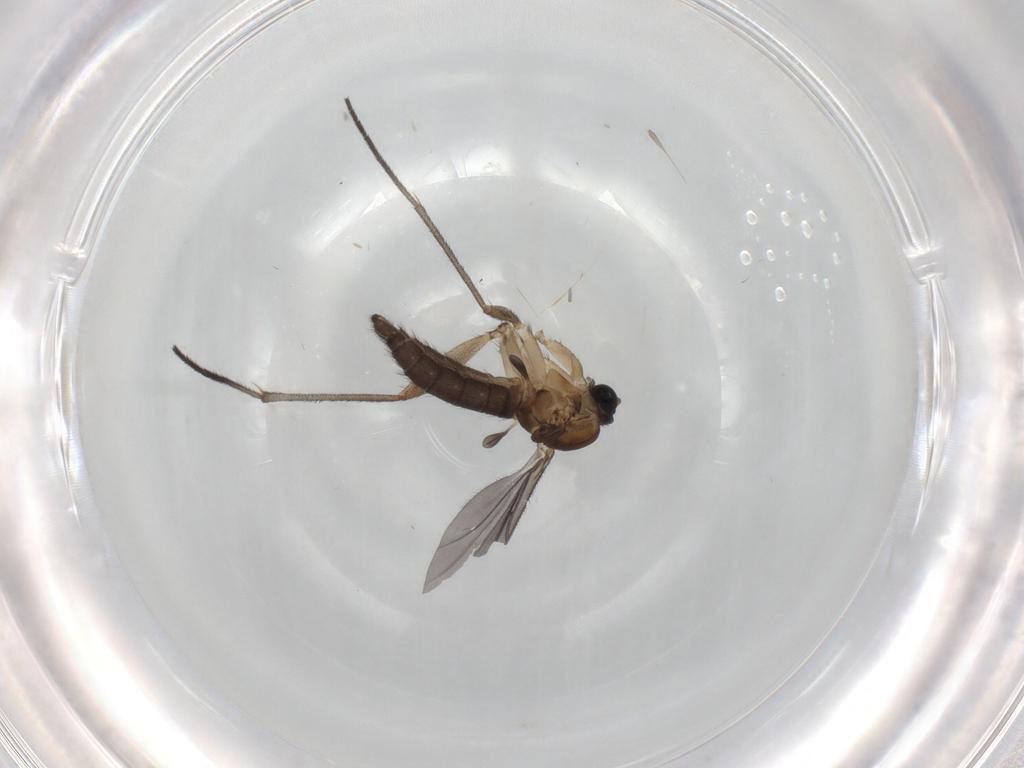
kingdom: Animalia
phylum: Arthropoda
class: Insecta
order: Diptera
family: Sciaridae
